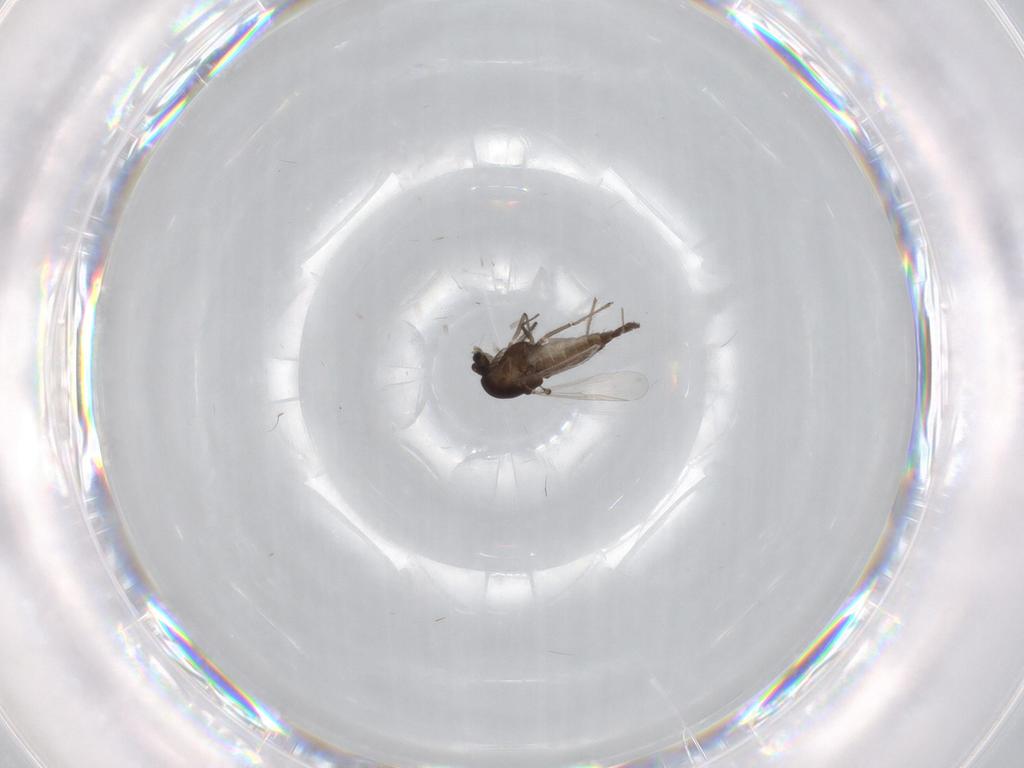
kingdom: Animalia
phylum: Arthropoda
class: Insecta
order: Diptera
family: Chironomidae
